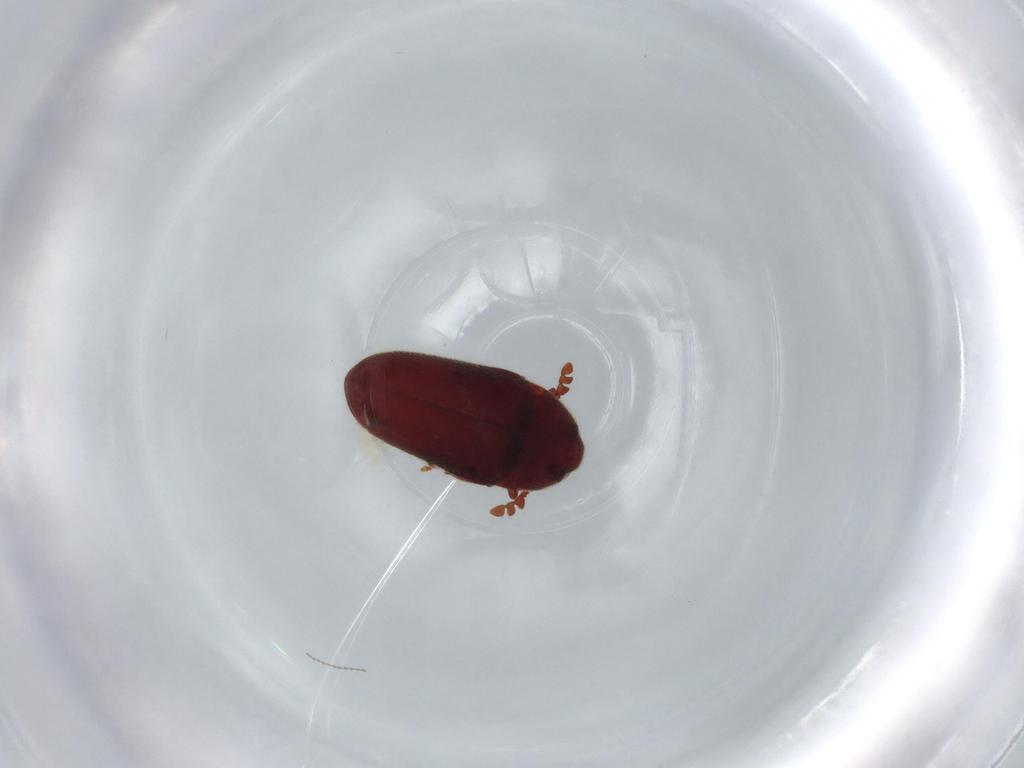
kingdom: Animalia
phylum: Arthropoda
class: Insecta
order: Coleoptera
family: Throscidae
